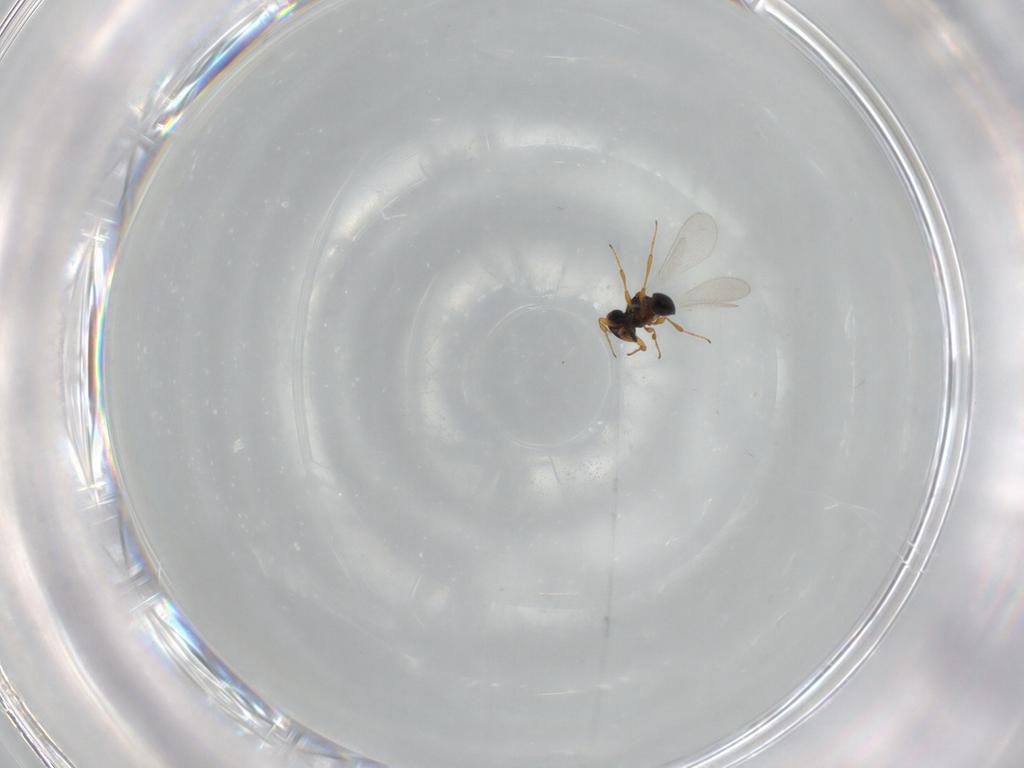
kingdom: Animalia
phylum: Arthropoda
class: Insecta
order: Hymenoptera
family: Platygastridae
